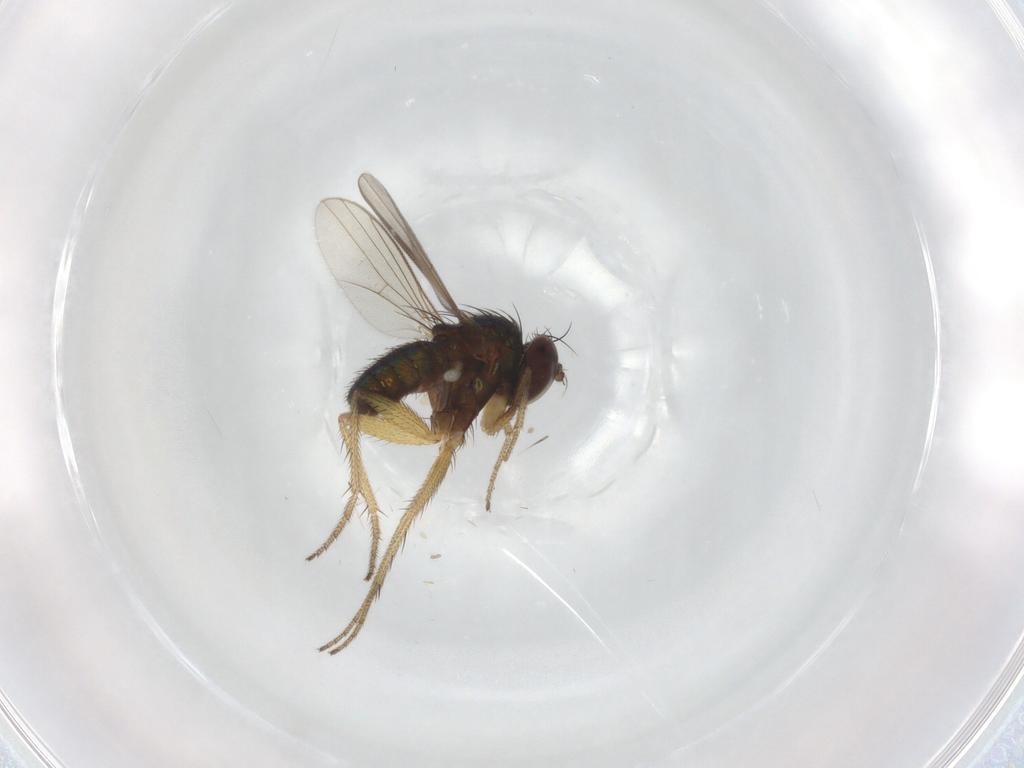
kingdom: Animalia
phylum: Arthropoda
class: Insecta
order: Diptera
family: Dolichopodidae
